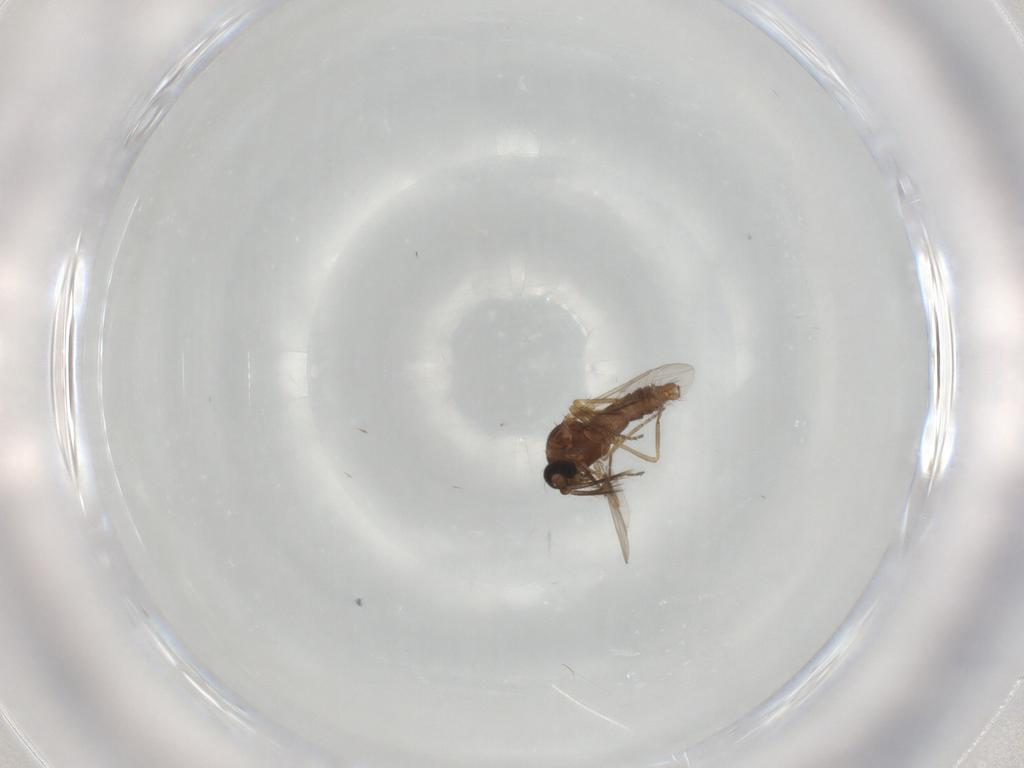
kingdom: Animalia
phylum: Arthropoda
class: Insecta
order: Diptera
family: Ceratopogonidae
